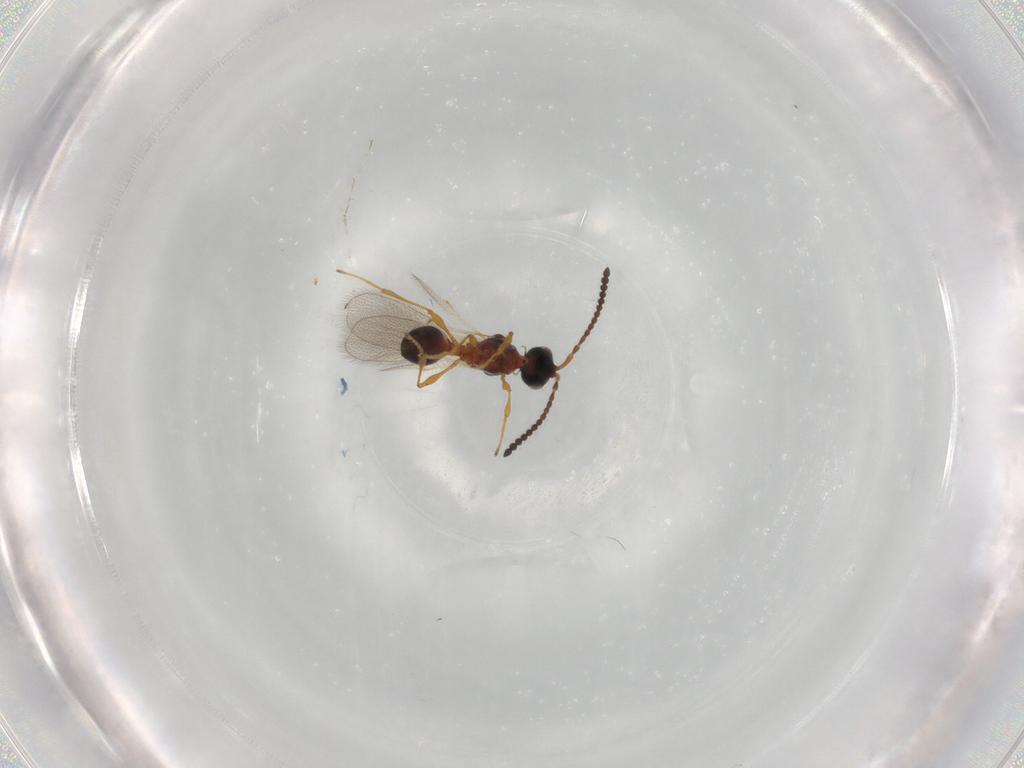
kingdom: Animalia
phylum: Arthropoda
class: Insecta
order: Hymenoptera
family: Diapriidae
